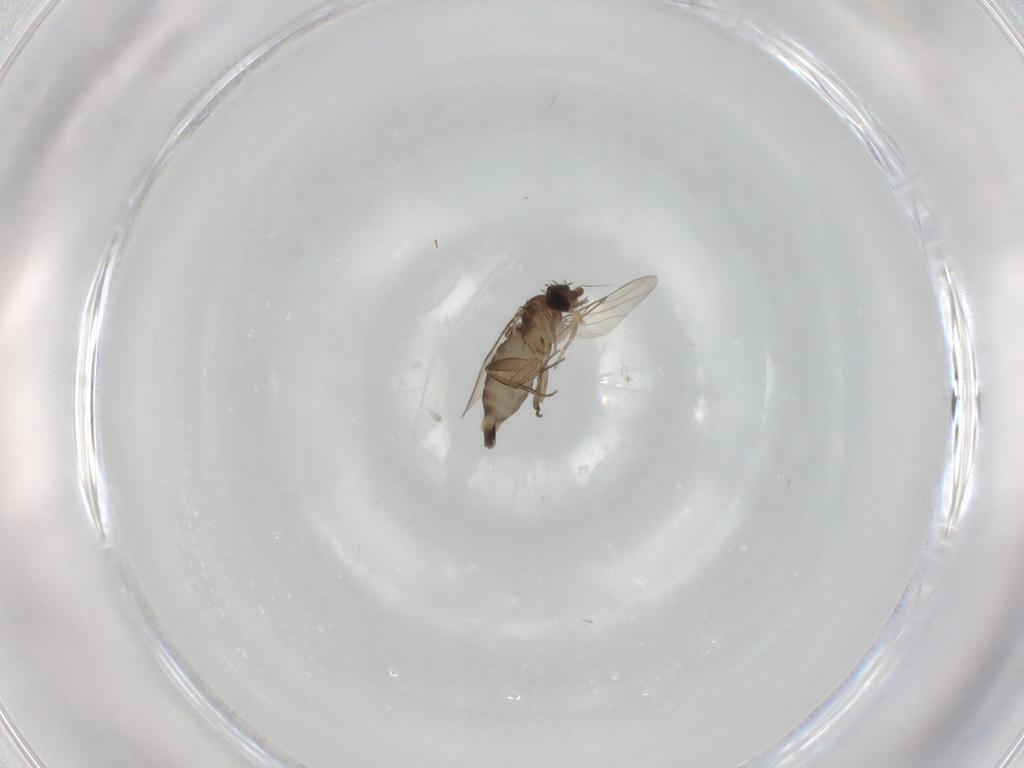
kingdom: Animalia
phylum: Arthropoda
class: Insecta
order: Diptera
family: Phoridae
